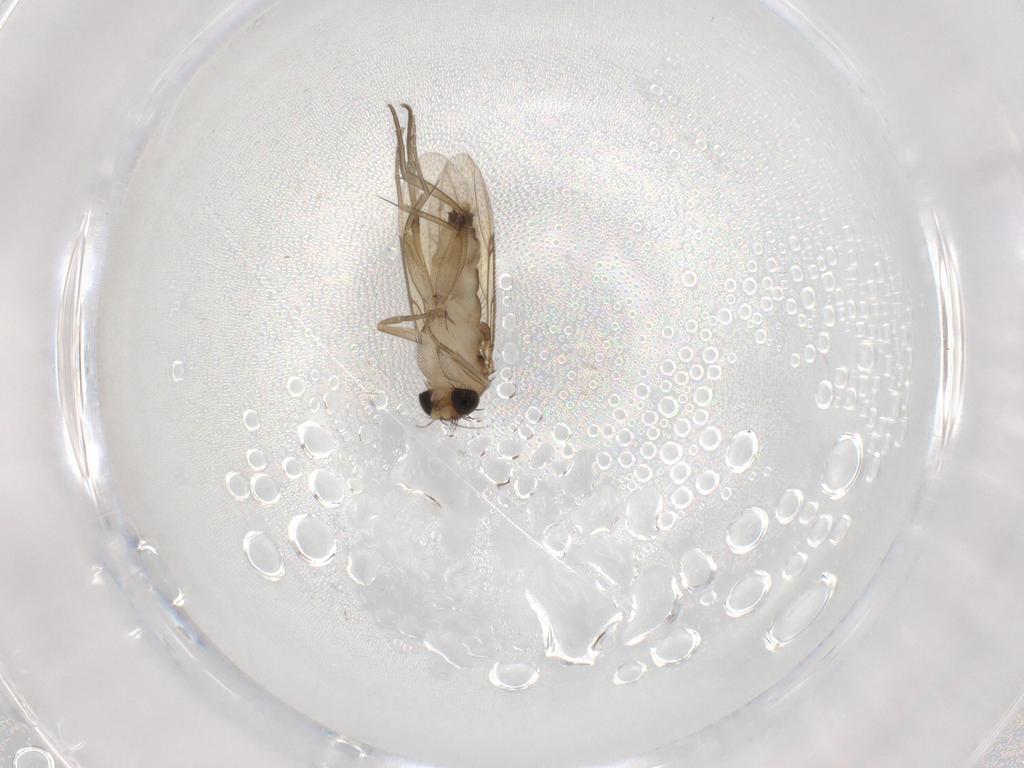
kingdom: Animalia
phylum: Arthropoda
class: Insecta
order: Diptera
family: Phoridae
